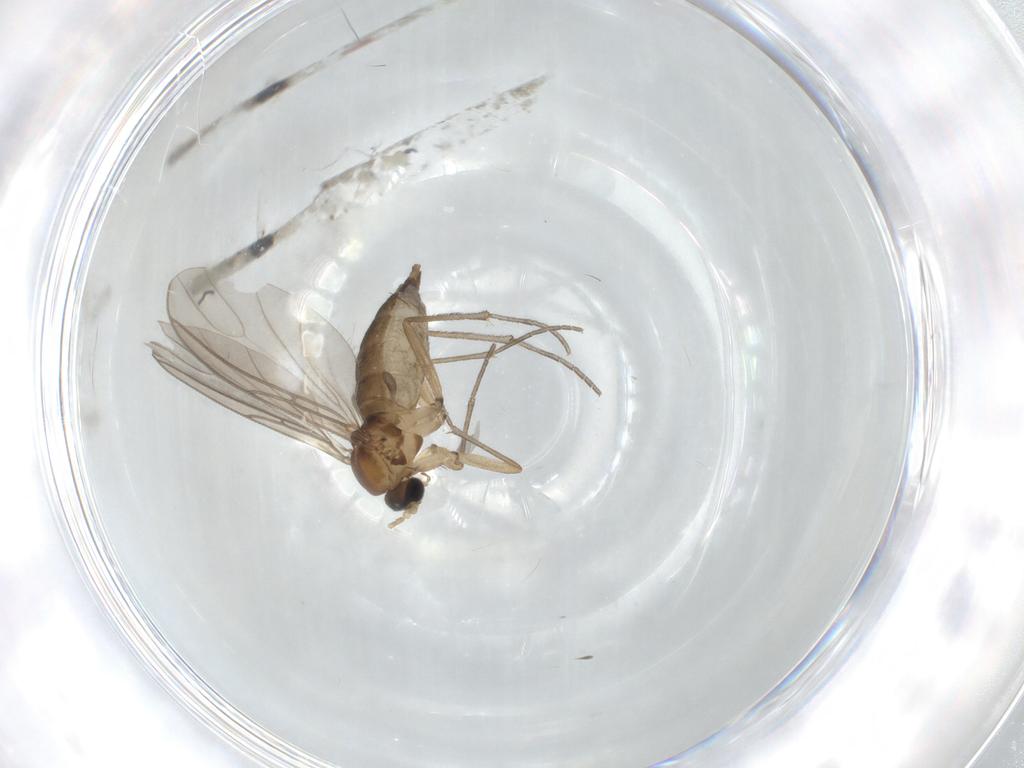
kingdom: Animalia
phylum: Arthropoda
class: Insecta
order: Diptera
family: Sciaridae
